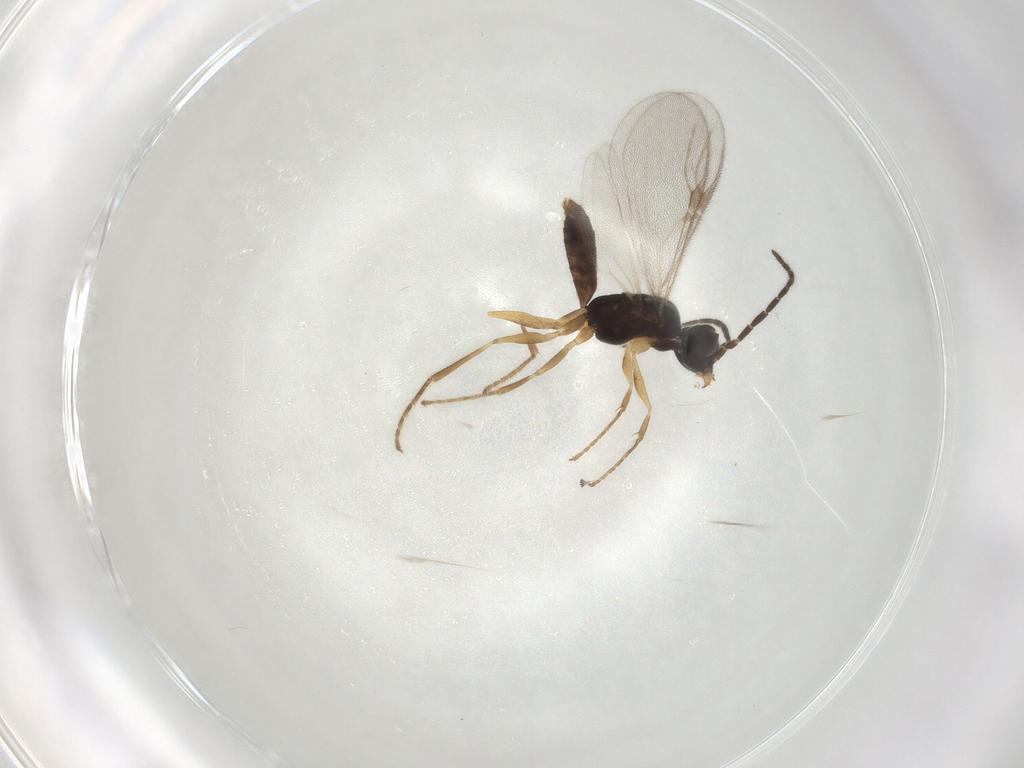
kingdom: Animalia
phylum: Arthropoda
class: Insecta
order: Hymenoptera
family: Dryinidae
